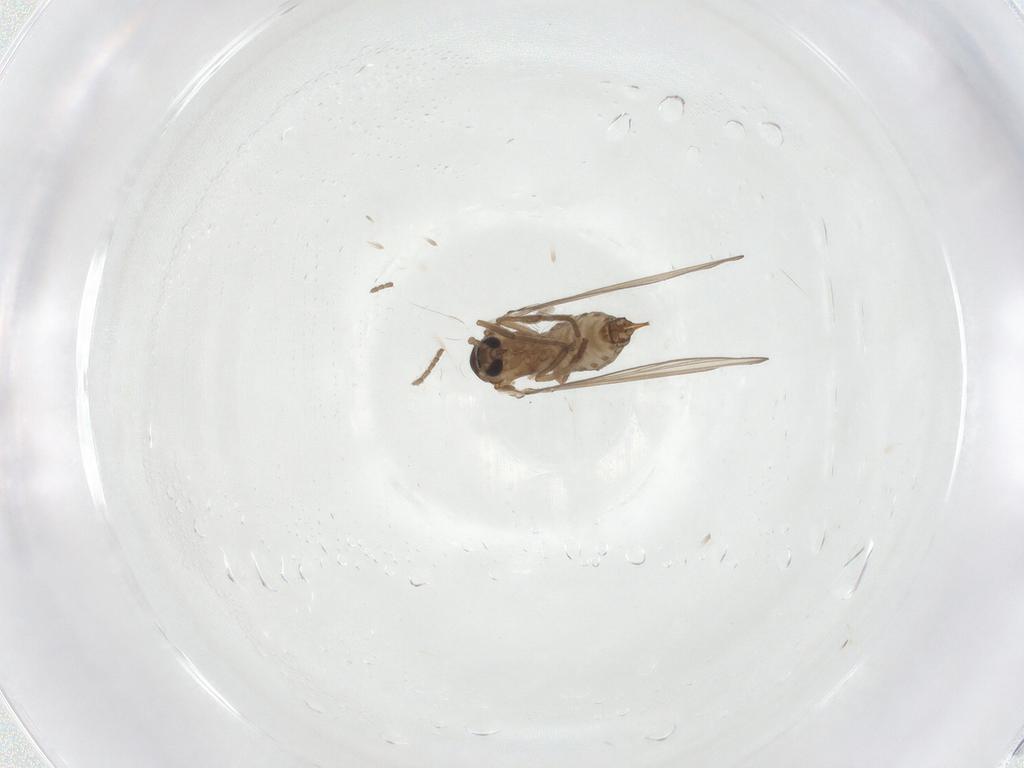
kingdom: Animalia
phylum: Arthropoda
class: Insecta
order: Diptera
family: Psychodidae
